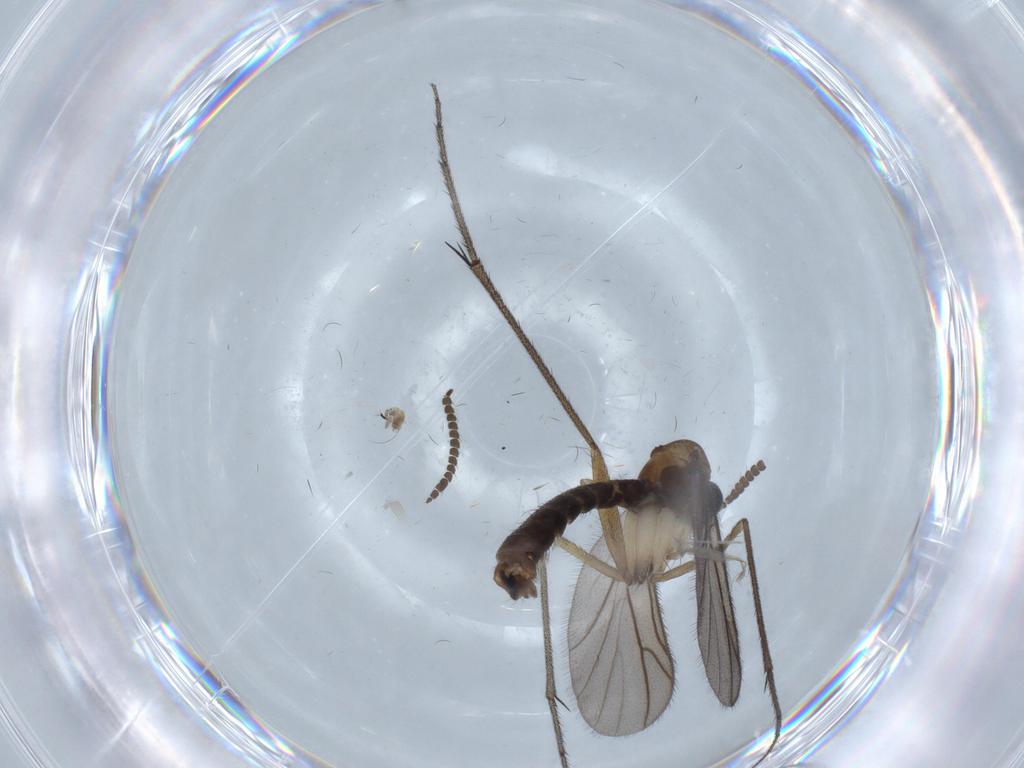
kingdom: Animalia
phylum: Arthropoda
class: Insecta
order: Diptera
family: Ditomyiidae
